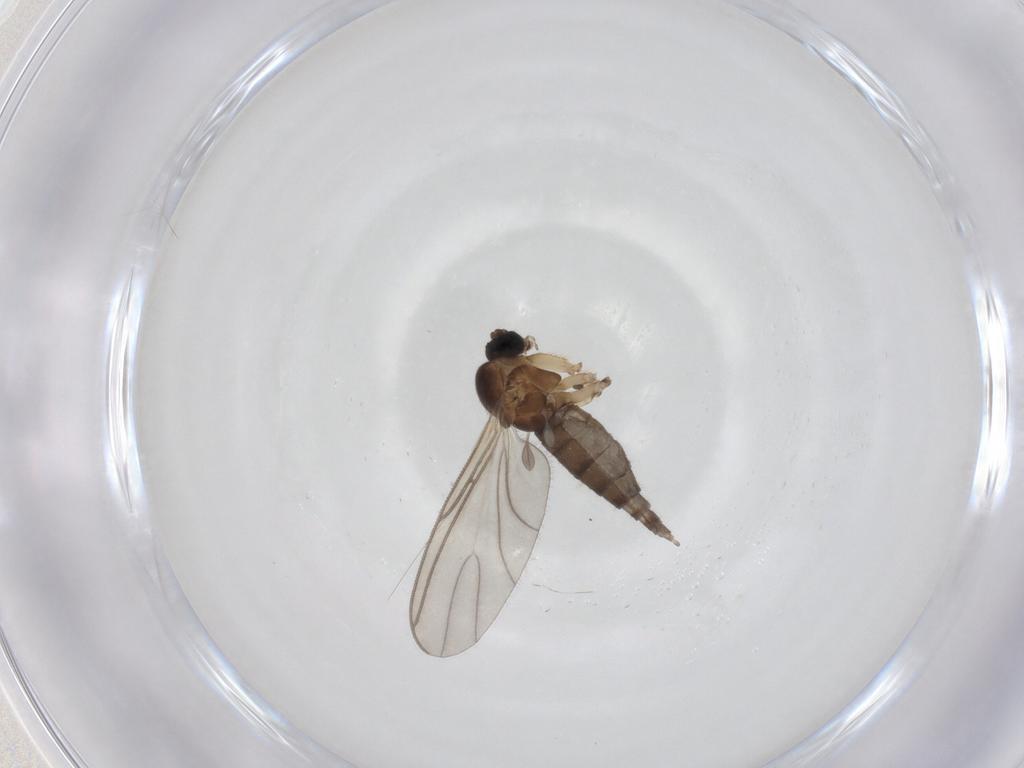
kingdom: Animalia
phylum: Arthropoda
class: Insecta
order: Diptera
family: Sciaridae
